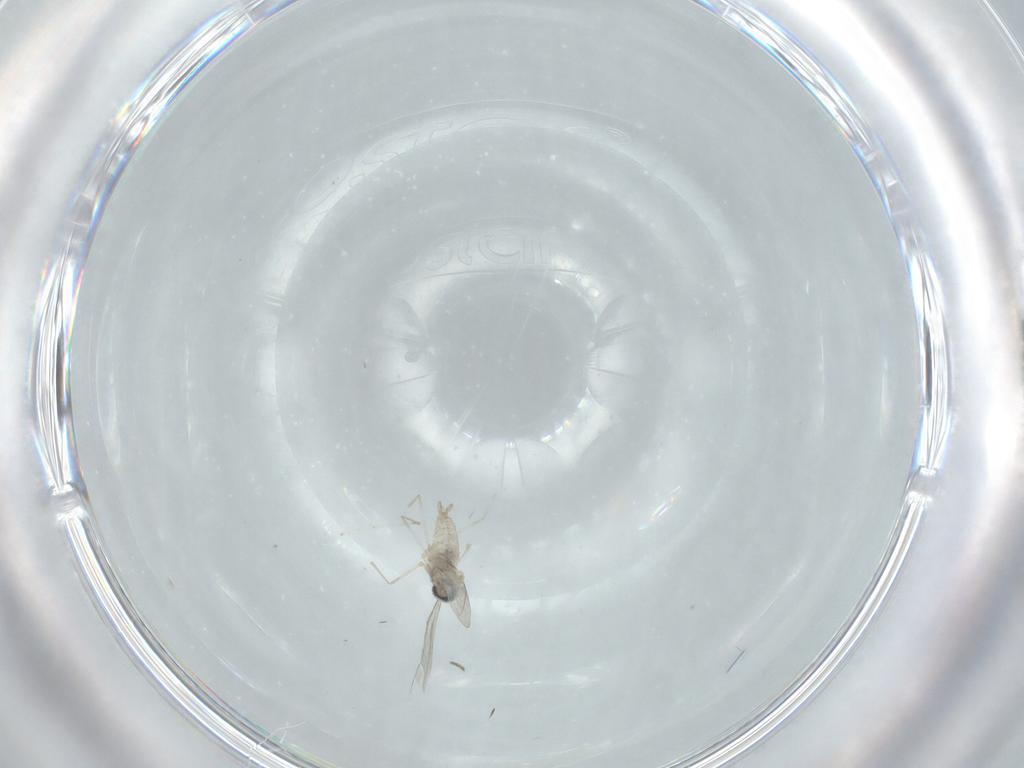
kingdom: Animalia
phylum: Arthropoda
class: Insecta
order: Diptera
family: Cecidomyiidae
